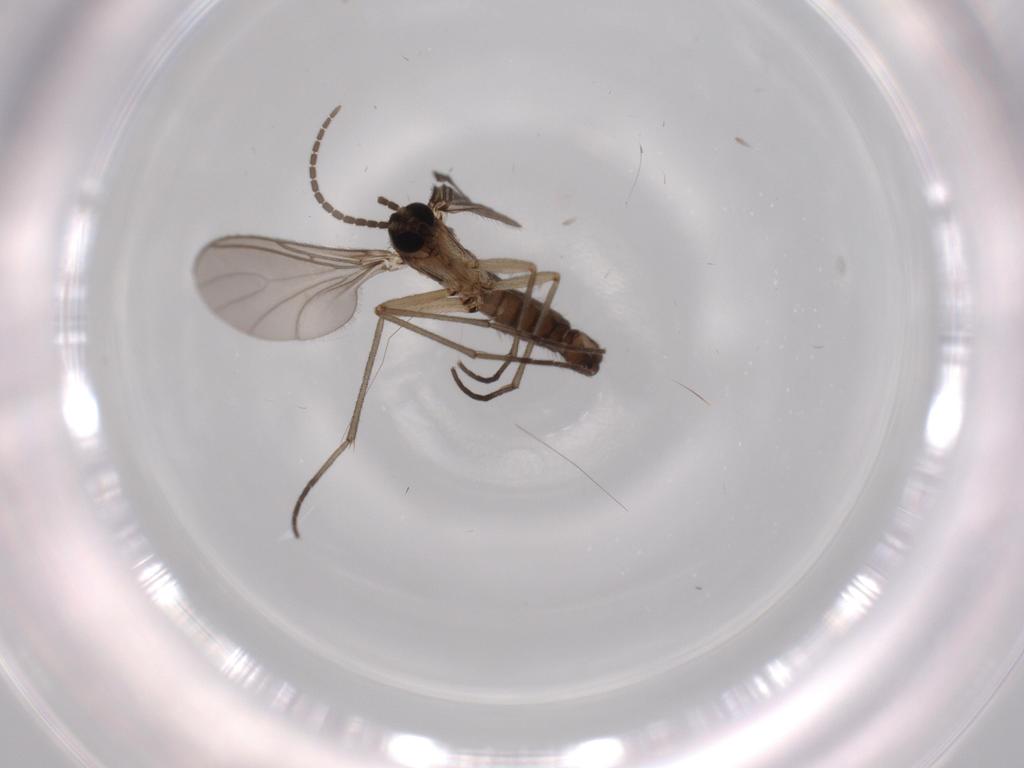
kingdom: Animalia
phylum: Arthropoda
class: Insecta
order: Diptera
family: Sciaridae
